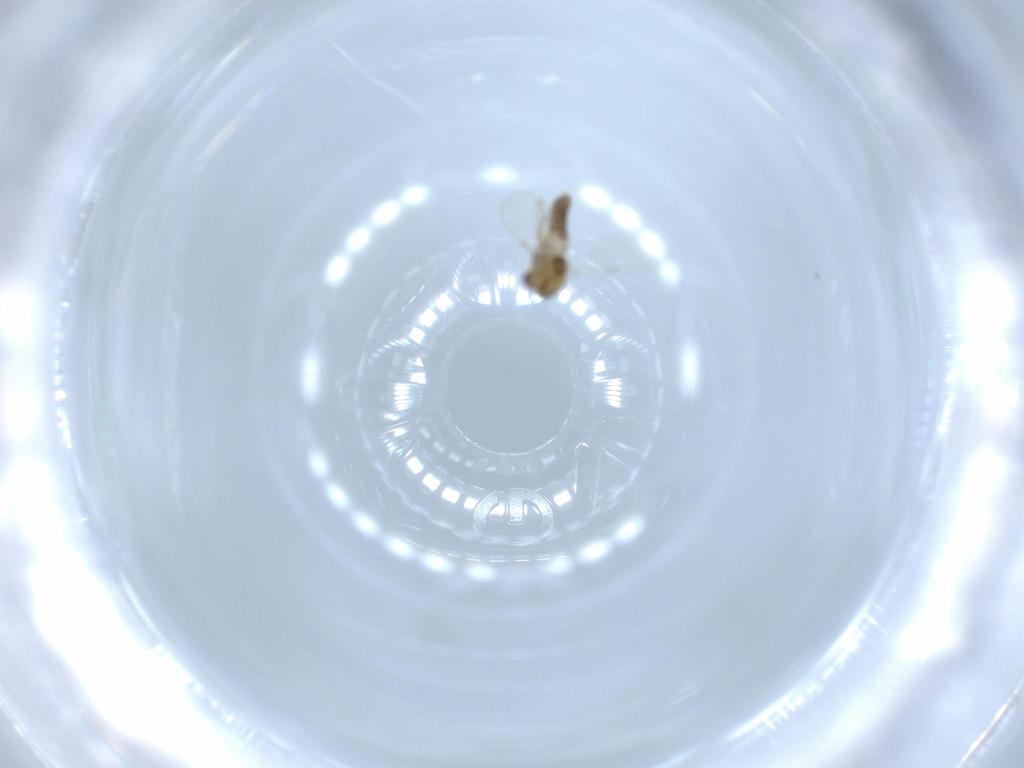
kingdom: Animalia
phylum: Arthropoda
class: Insecta
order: Diptera
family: Chironomidae
